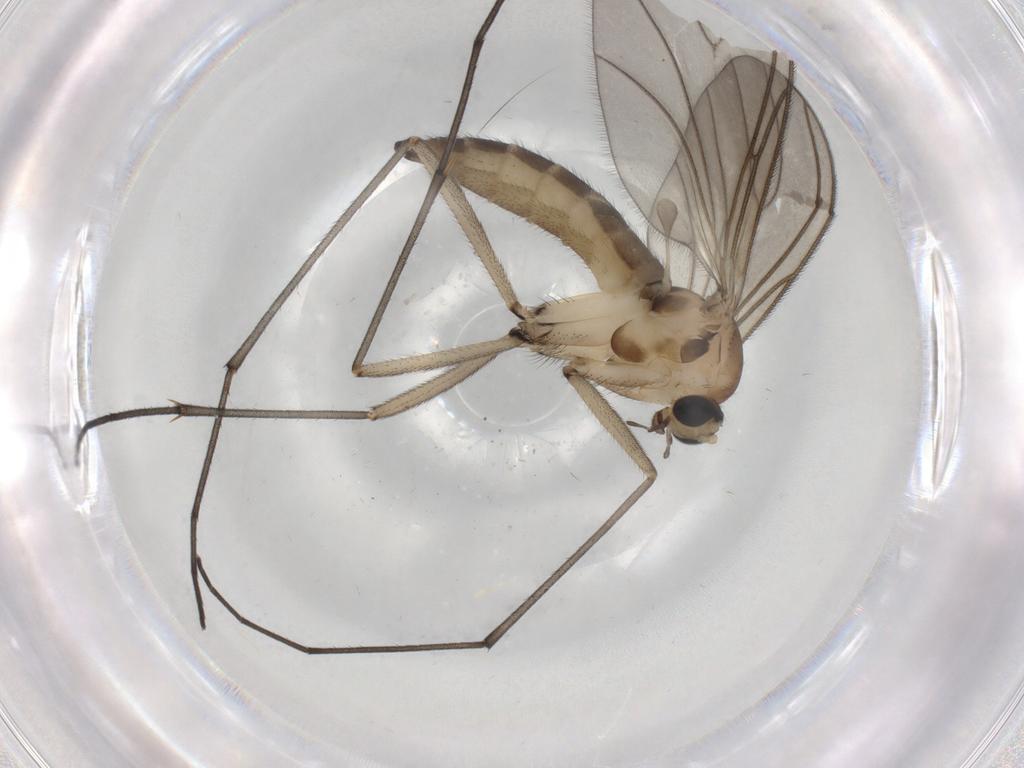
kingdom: Animalia
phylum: Arthropoda
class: Insecta
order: Diptera
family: Sciaridae
